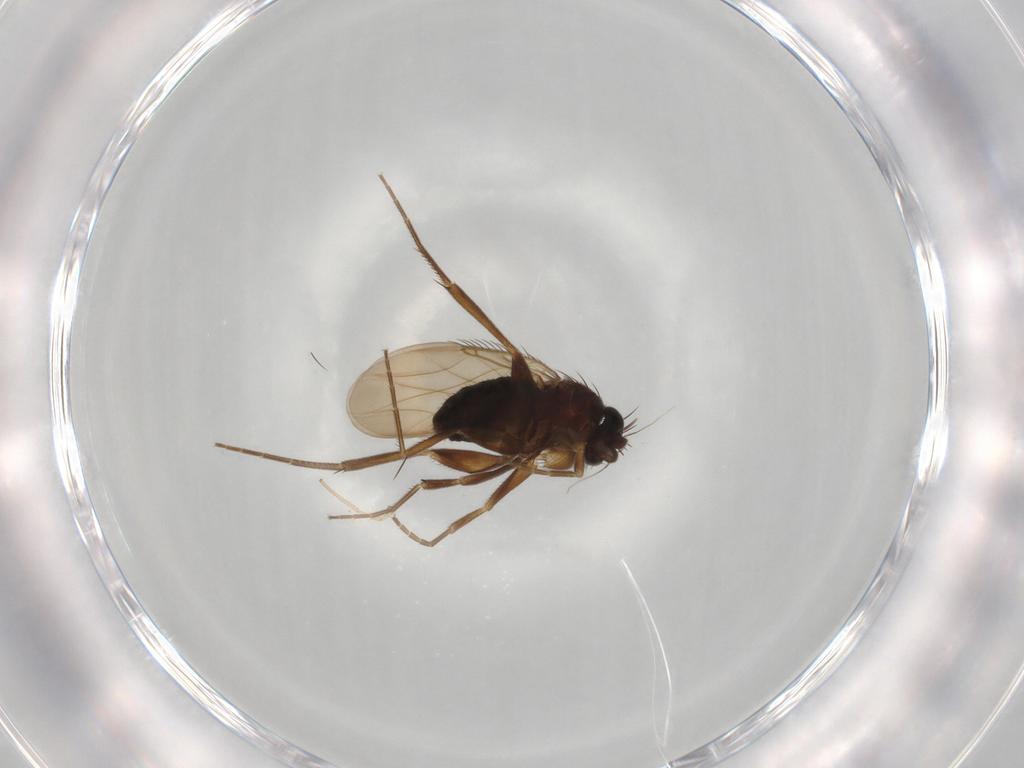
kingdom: Animalia
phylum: Arthropoda
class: Insecta
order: Diptera
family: Phoridae
